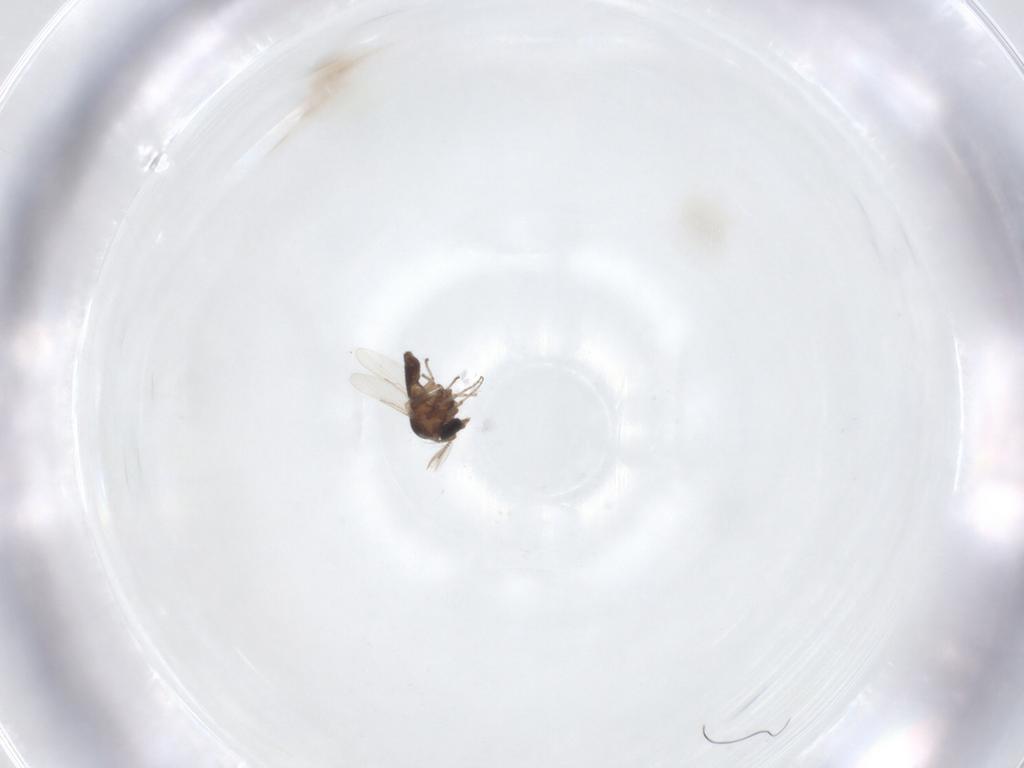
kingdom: Animalia
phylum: Arthropoda
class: Insecta
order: Diptera
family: Ceratopogonidae
